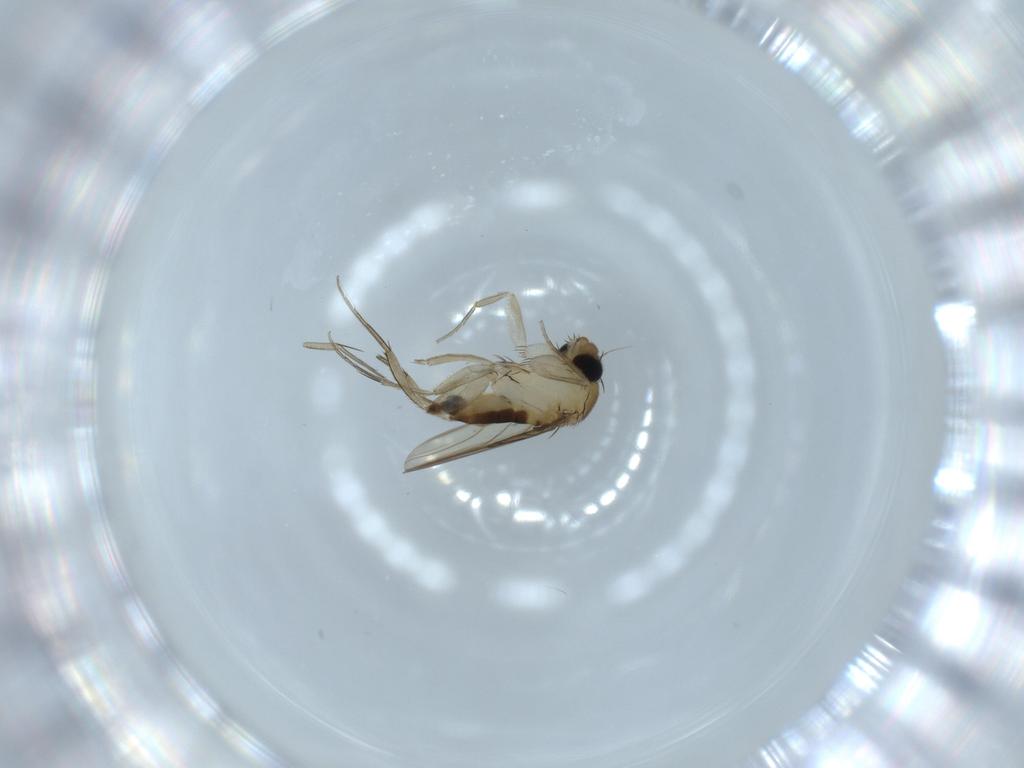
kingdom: Animalia
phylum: Arthropoda
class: Insecta
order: Diptera
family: Phoridae
